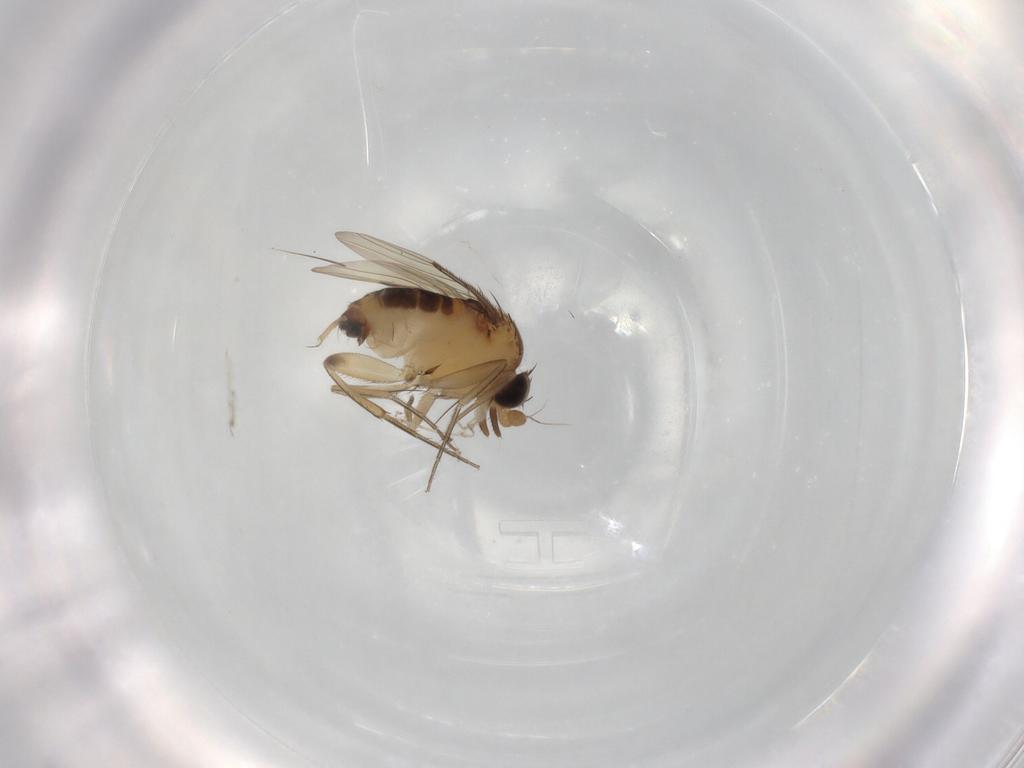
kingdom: Animalia
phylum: Arthropoda
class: Insecta
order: Diptera
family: Phoridae
